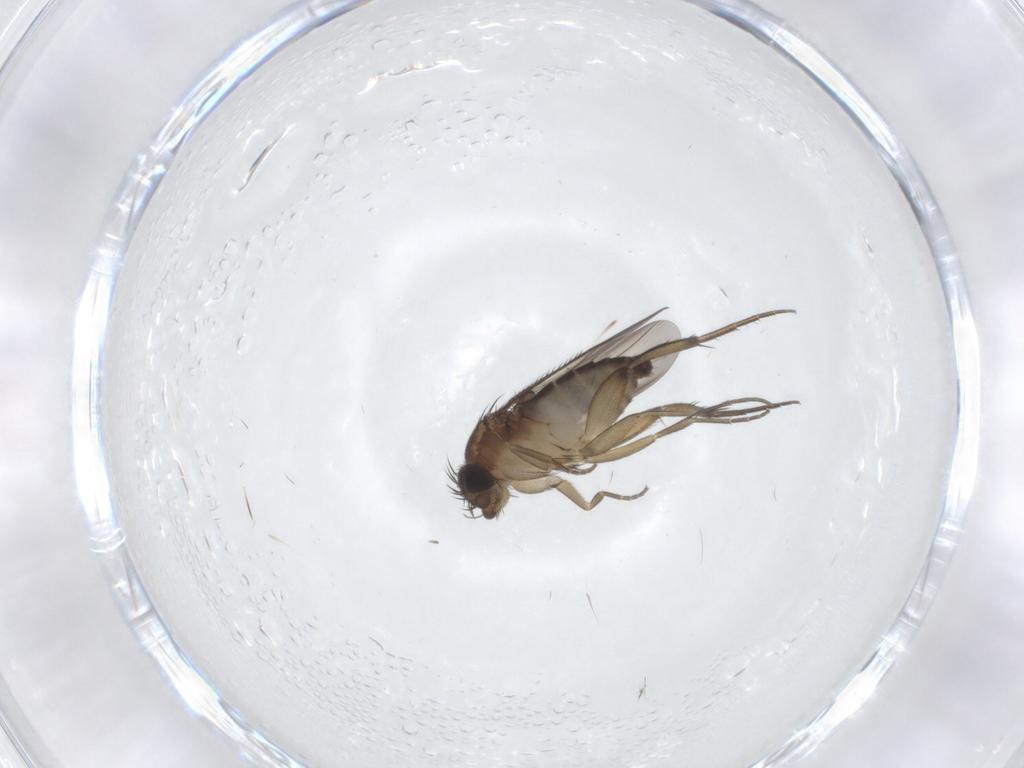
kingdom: Animalia
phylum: Arthropoda
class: Insecta
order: Diptera
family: Phoridae
